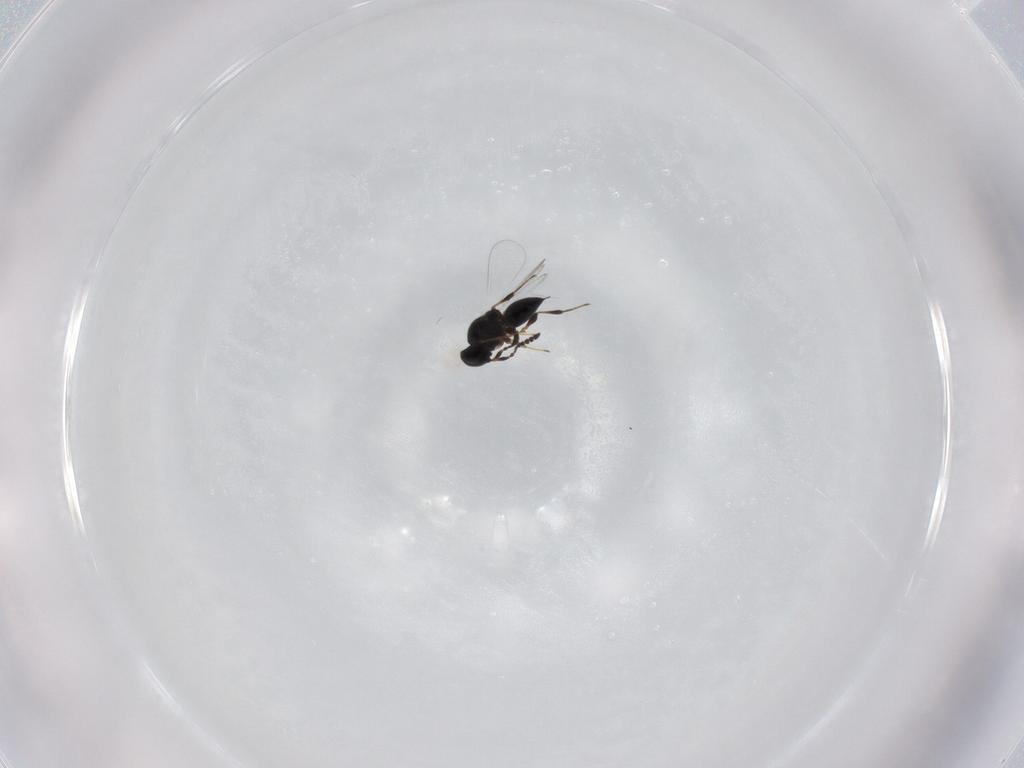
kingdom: Animalia
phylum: Arthropoda
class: Insecta
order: Hymenoptera
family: Platygastridae
